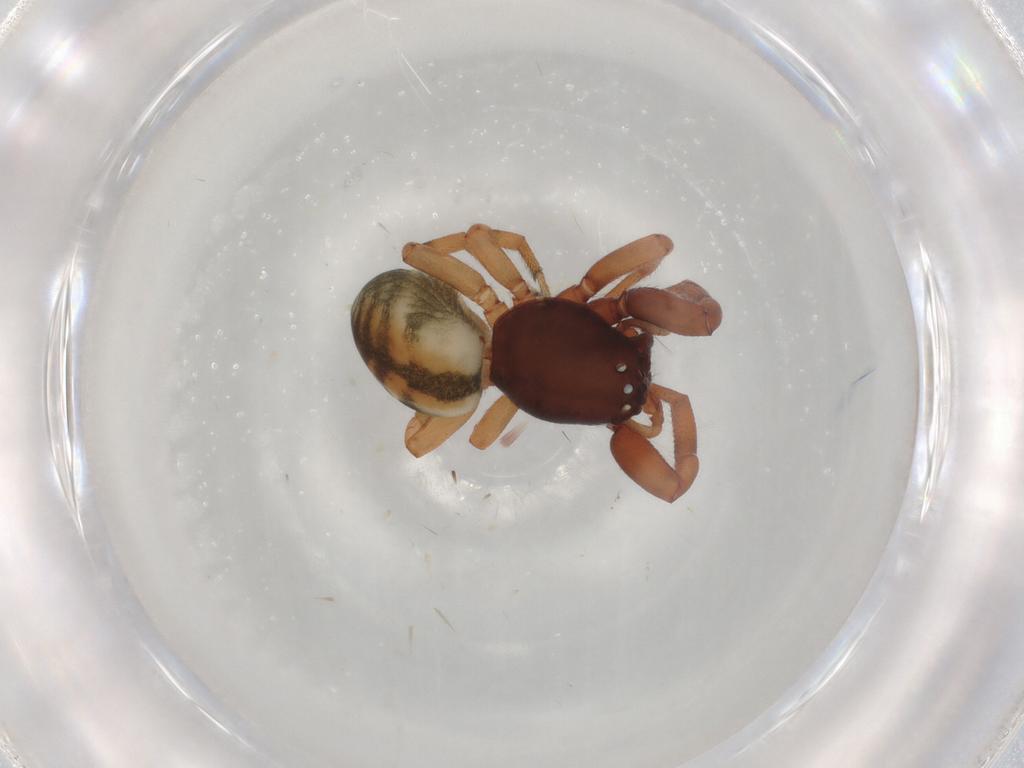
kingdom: Animalia
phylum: Arthropoda
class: Arachnida
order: Araneae
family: Trachelidae
